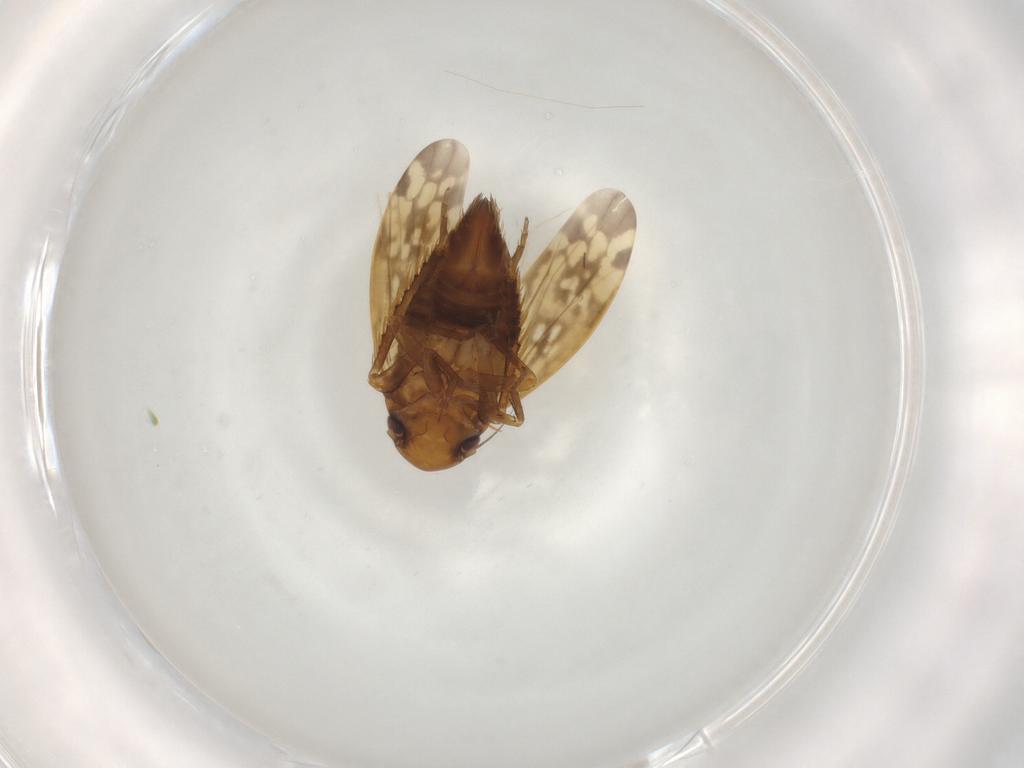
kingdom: Animalia
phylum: Arthropoda
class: Insecta
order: Hemiptera
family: Cicadellidae
